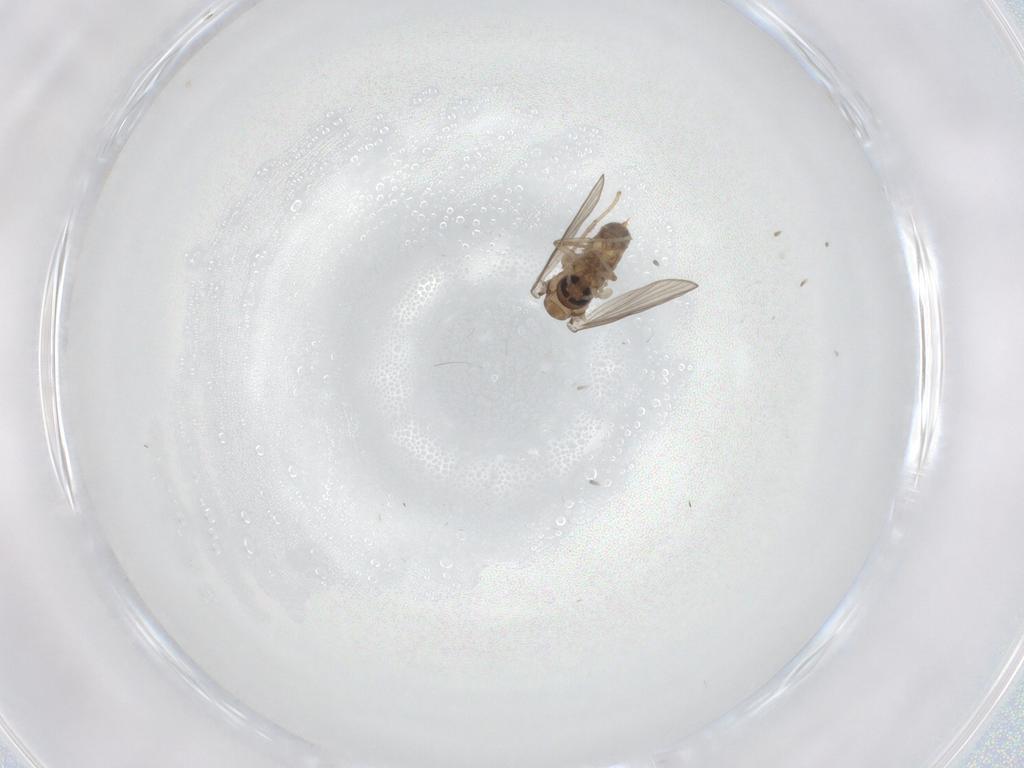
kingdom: Animalia
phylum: Arthropoda
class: Insecta
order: Diptera
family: Psychodidae
